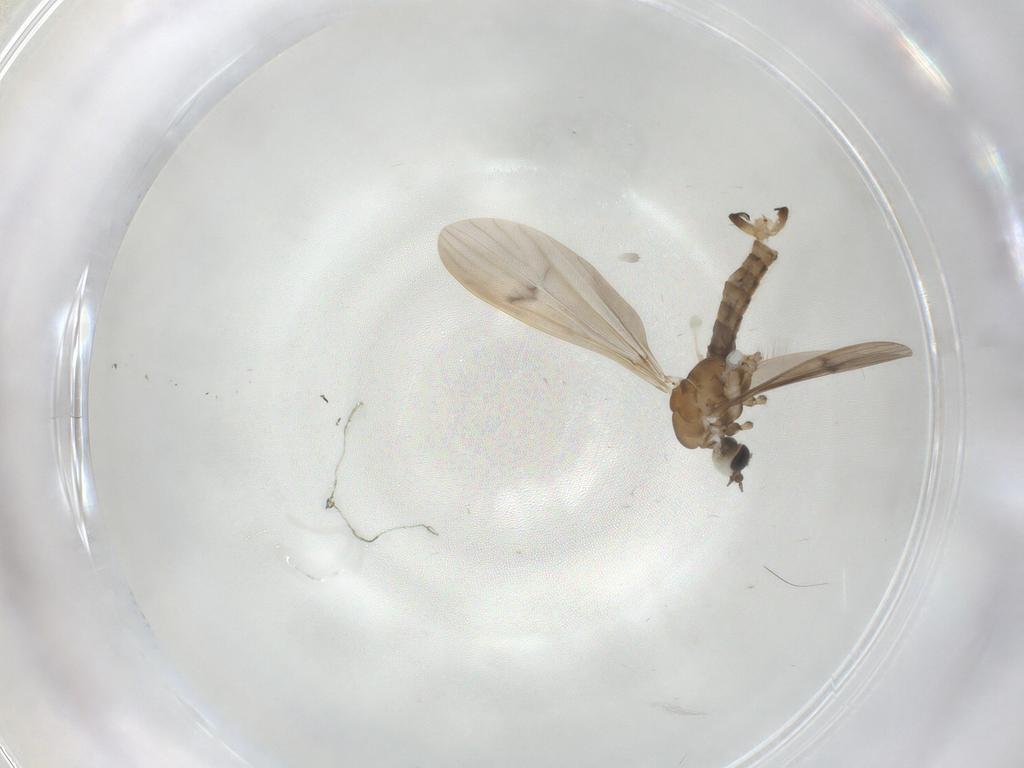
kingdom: Animalia
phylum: Arthropoda
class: Insecta
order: Diptera
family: Limoniidae
